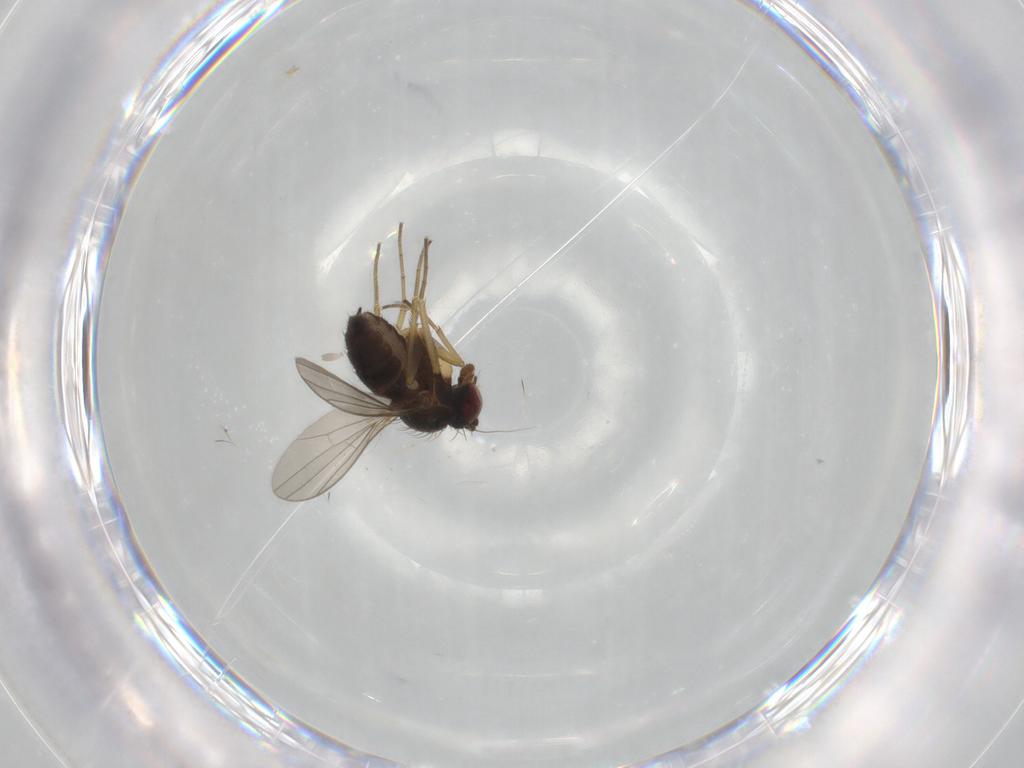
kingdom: Animalia
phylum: Arthropoda
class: Insecta
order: Diptera
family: Dolichopodidae
